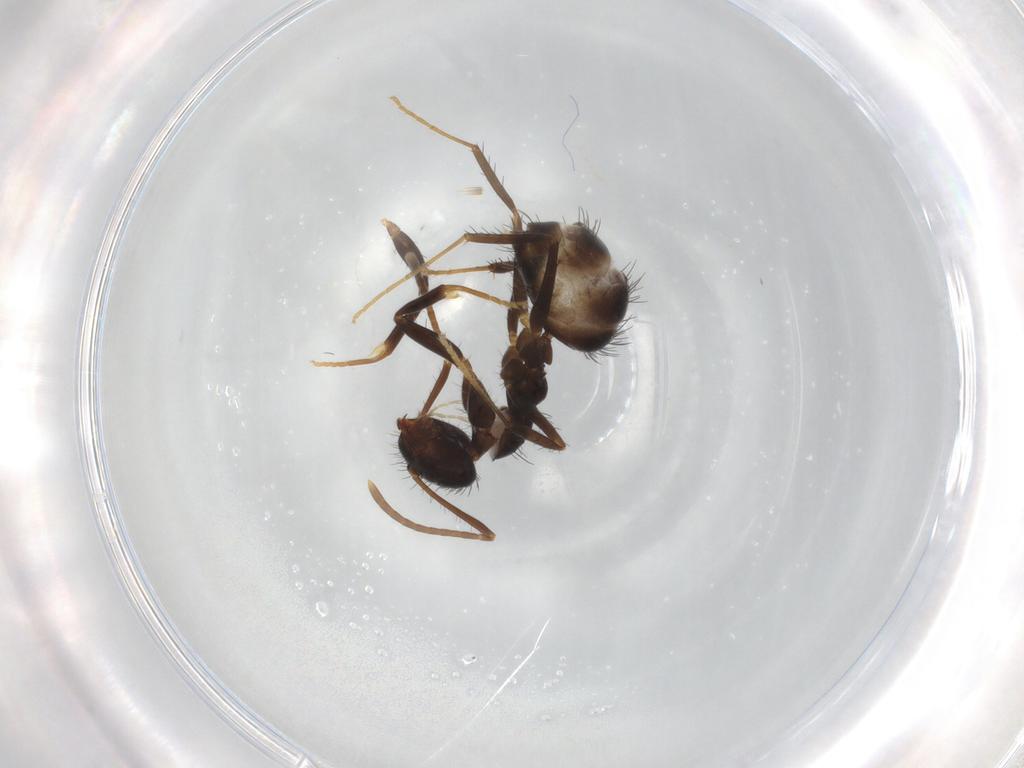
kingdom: Animalia
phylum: Arthropoda
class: Insecta
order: Hymenoptera
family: Formicidae
